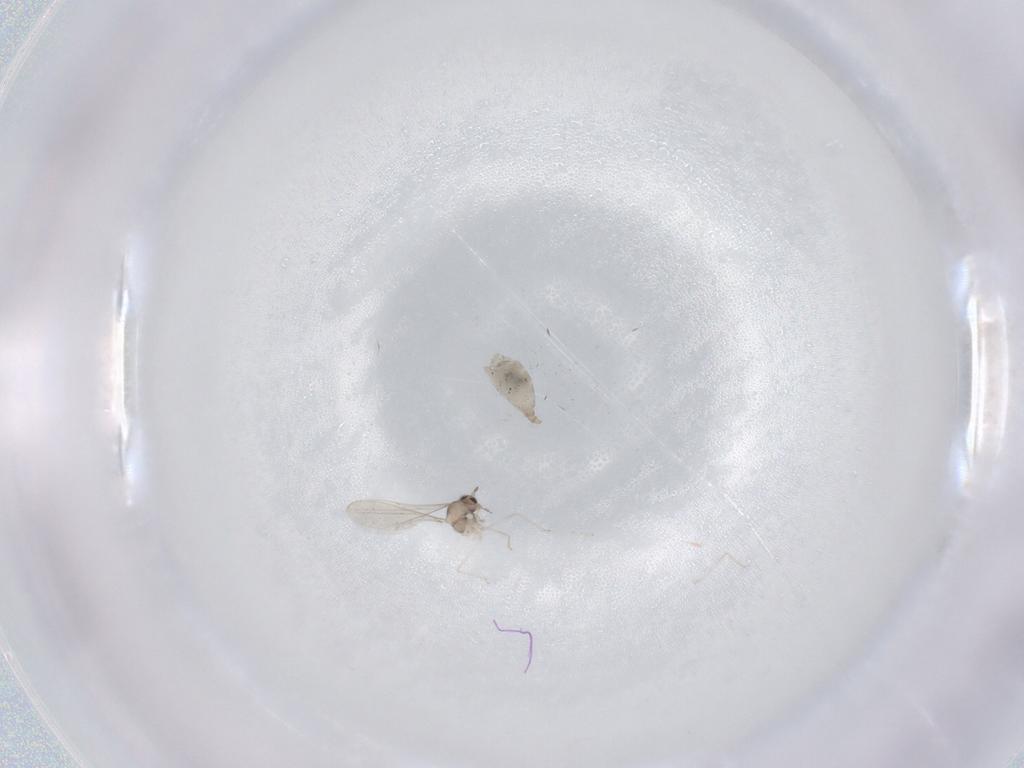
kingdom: Animalia
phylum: Arthropoda
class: Insecta
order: Diptera
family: Cecidomyiidae
